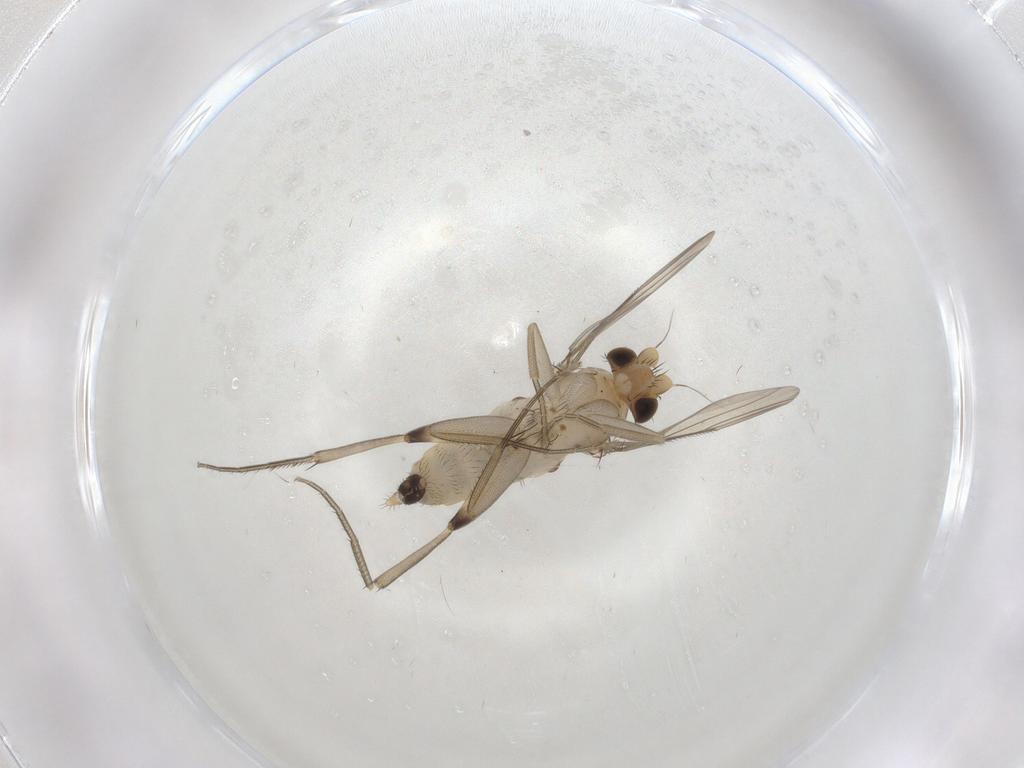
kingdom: Animalia
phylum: Arthropoda
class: Insecta
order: Diptera
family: Phoridae
